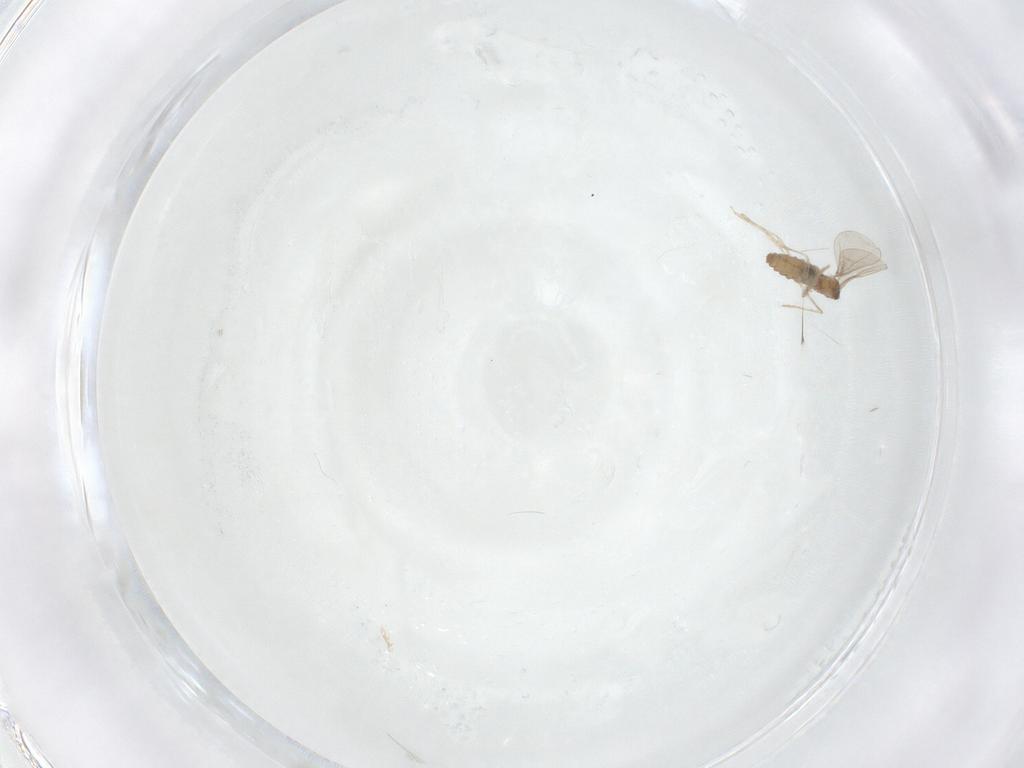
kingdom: Animalia
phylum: Arthropoda
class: Insecta
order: Diptera
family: Cecidomyiidae
